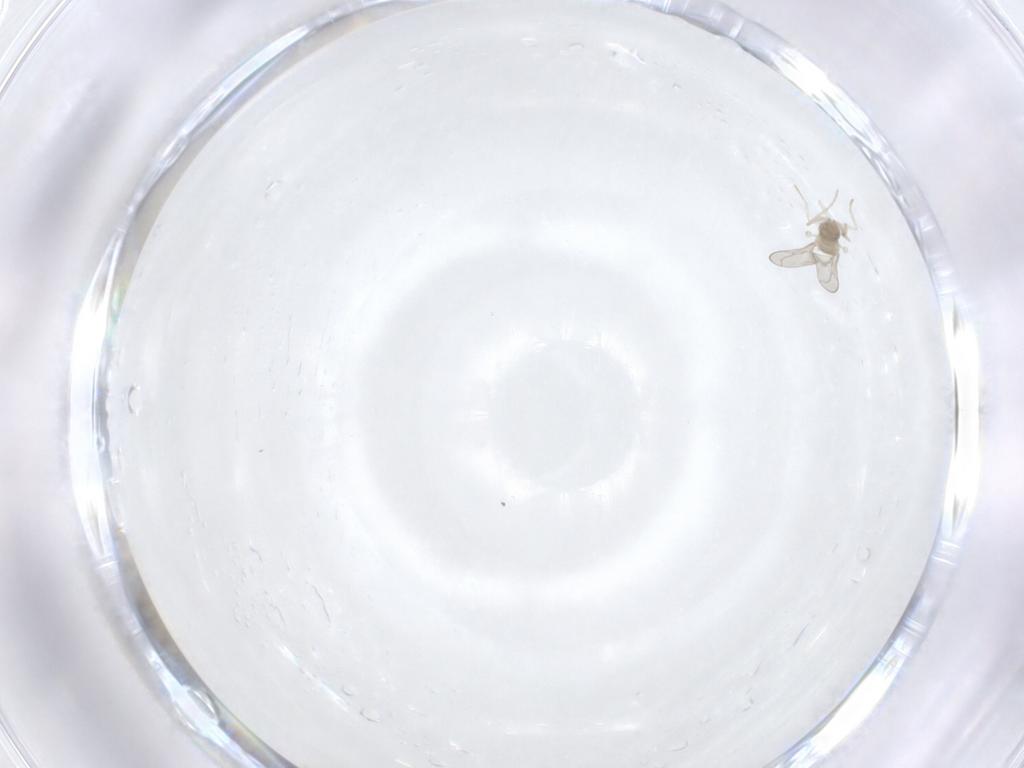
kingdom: Animalia
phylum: Arthropoda
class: Insecta
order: Diptera
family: Cecidomyiidae
